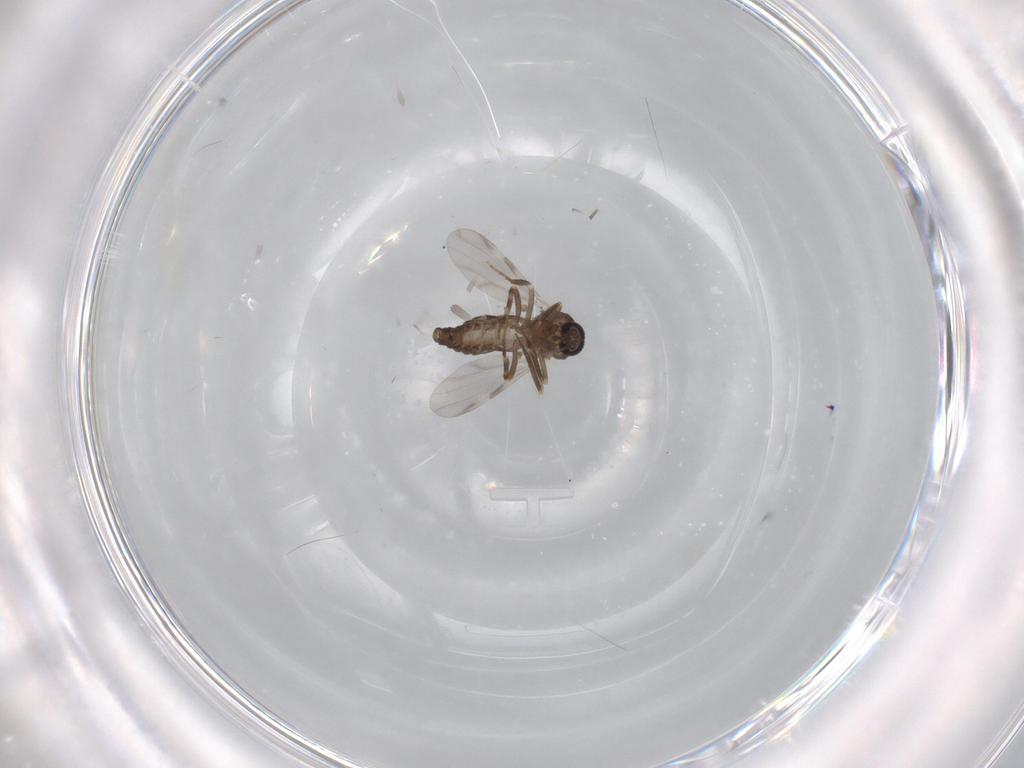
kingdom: Animalia
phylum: Arthropoda
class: Insecta
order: Diptera
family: Ceratopogonidae
